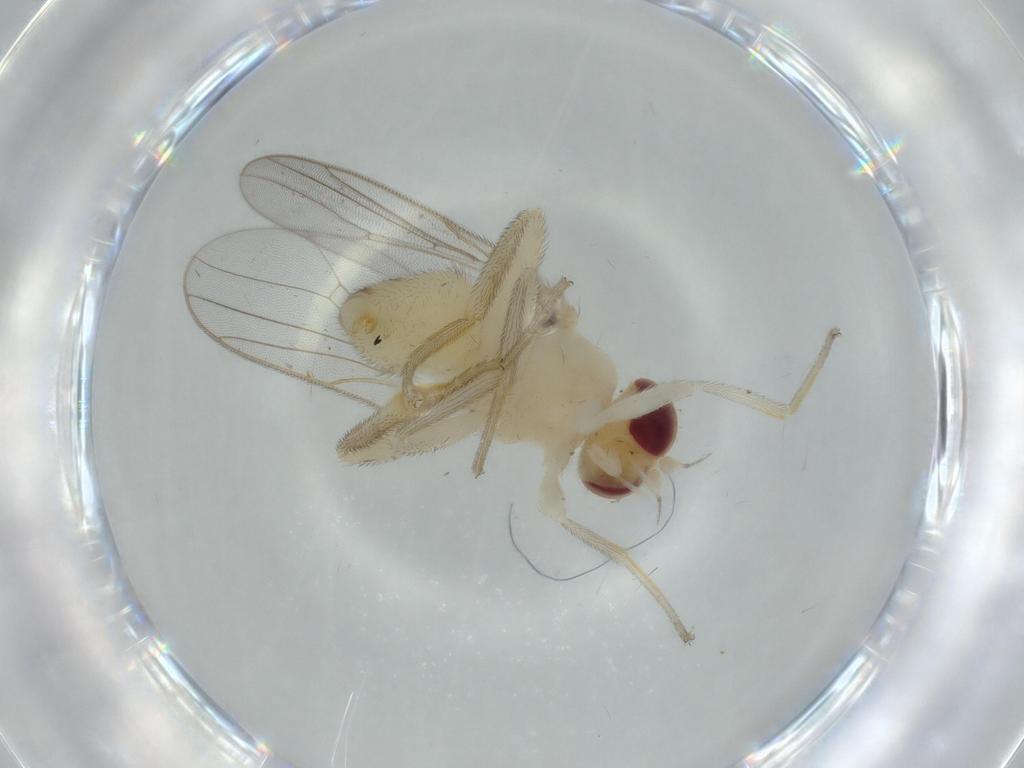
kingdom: Animalia
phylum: Arthropoda
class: Insecta
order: Diptera
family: Chloropidae
